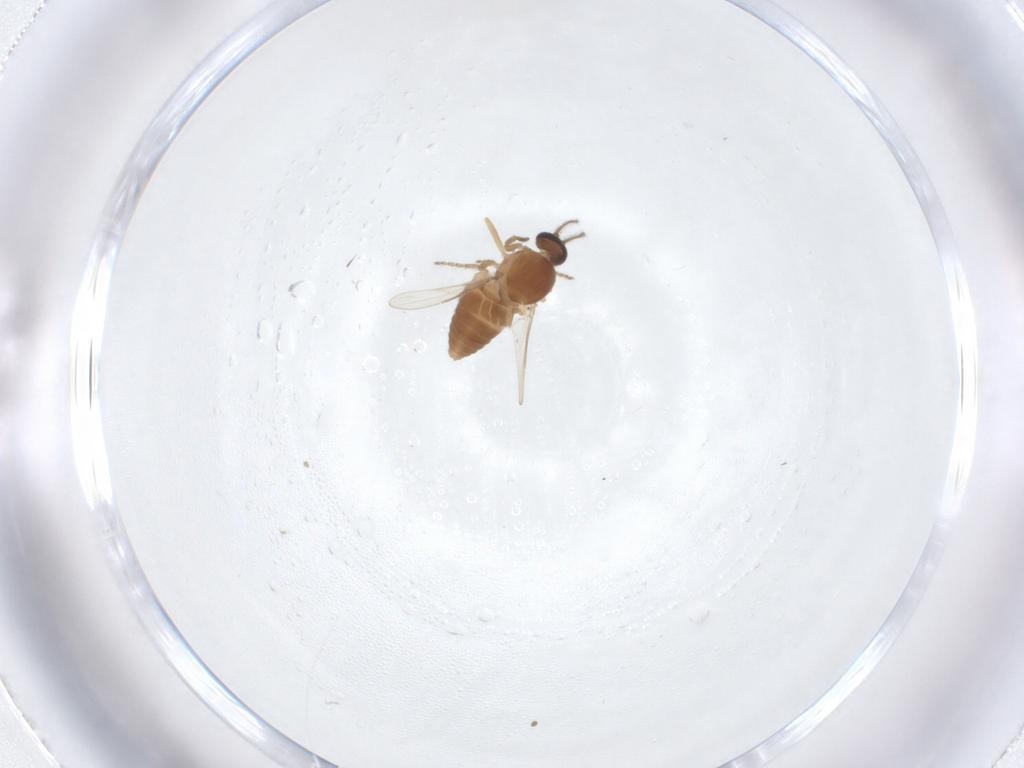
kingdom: Animalia
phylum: Arthropoda
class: Insecta
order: Diptera
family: Ceratopogonidae
